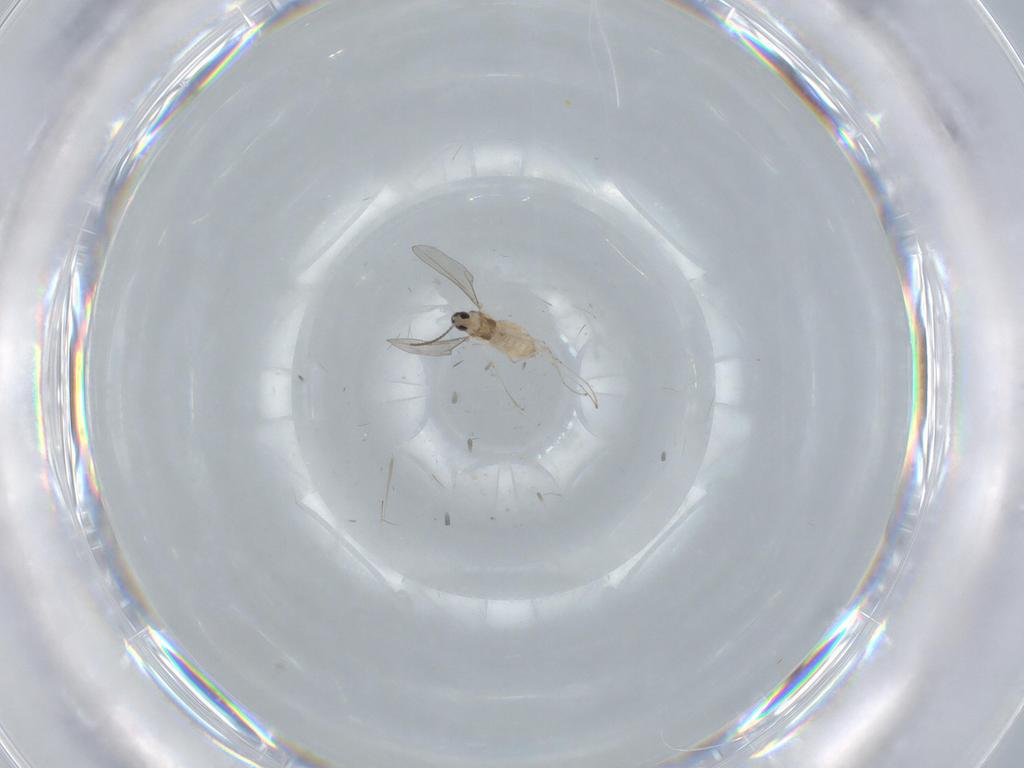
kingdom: Animalia
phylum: Arthropoda
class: Insecta
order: Diptera
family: Cecidomyiidae
